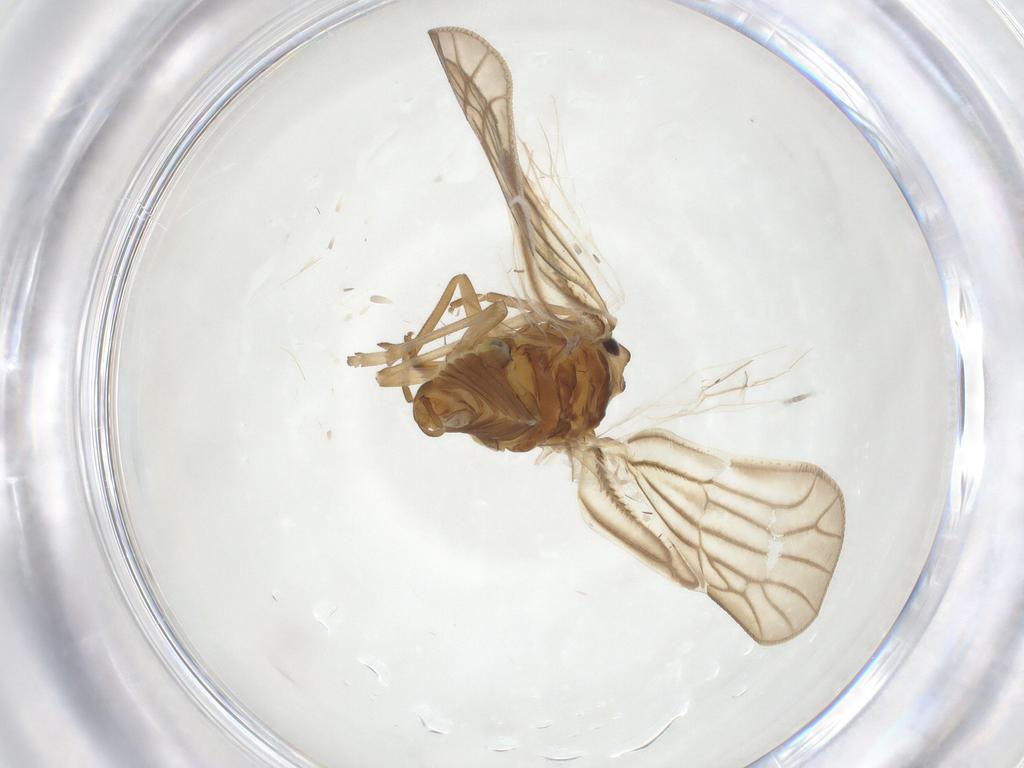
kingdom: Animalia
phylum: Arthropoda
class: Insecta
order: Hemiptera
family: Meenoplidae
